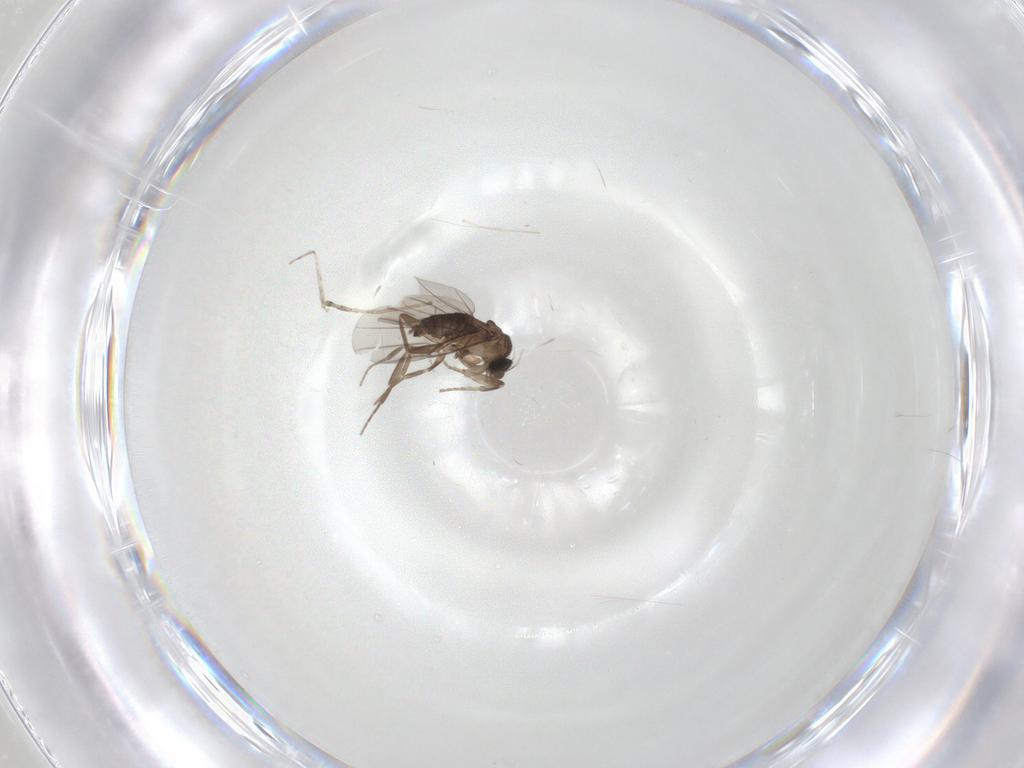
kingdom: Animalia
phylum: Arthropoda
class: Insecta
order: Diptera
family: Phoridae
